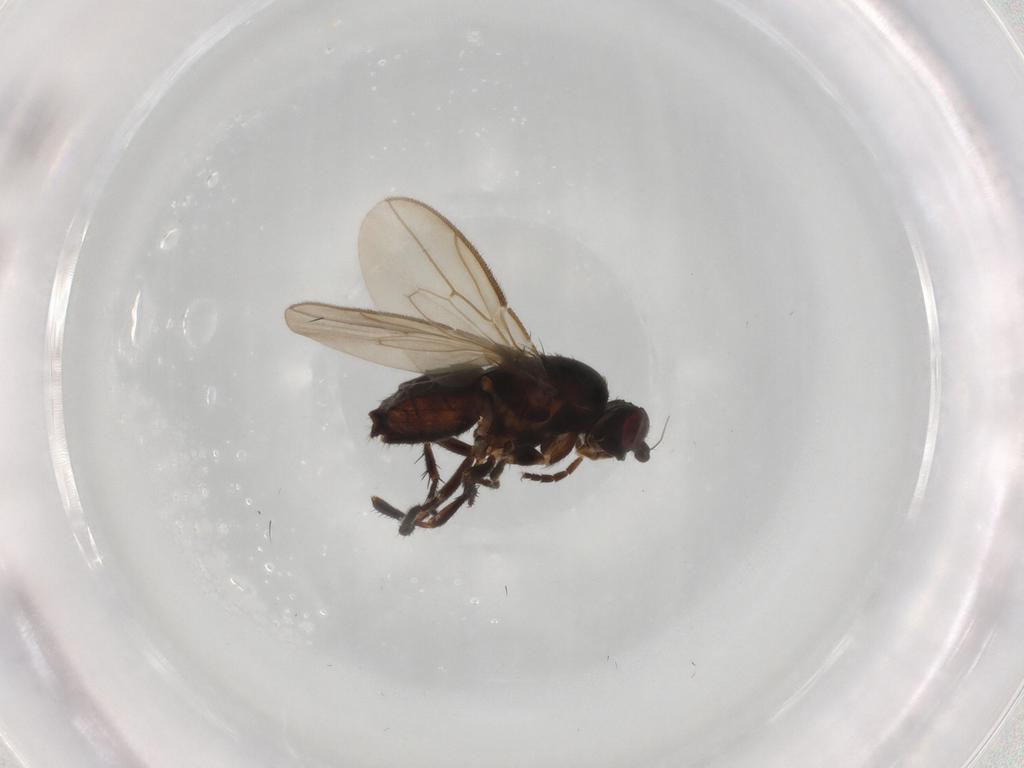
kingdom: Animalia
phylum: Arthropoda
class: Insecta
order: Diptera
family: Sphaeroceridae
